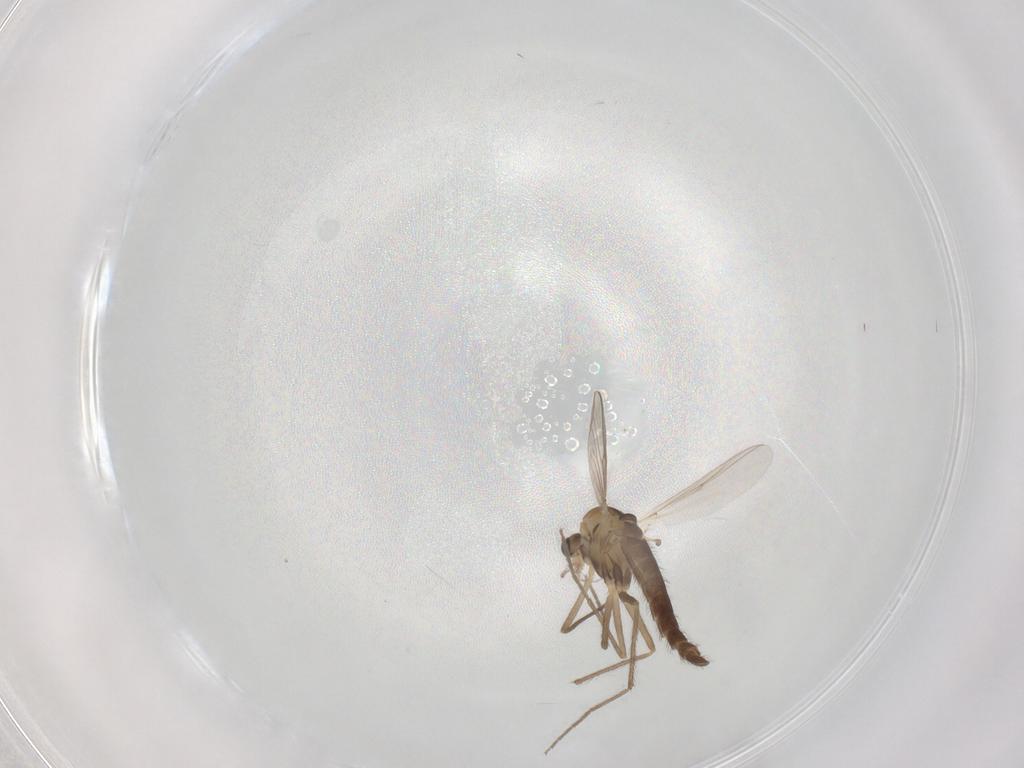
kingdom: Animalia
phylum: Arthropoda
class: Insecta
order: Diptera
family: Chironomidae
